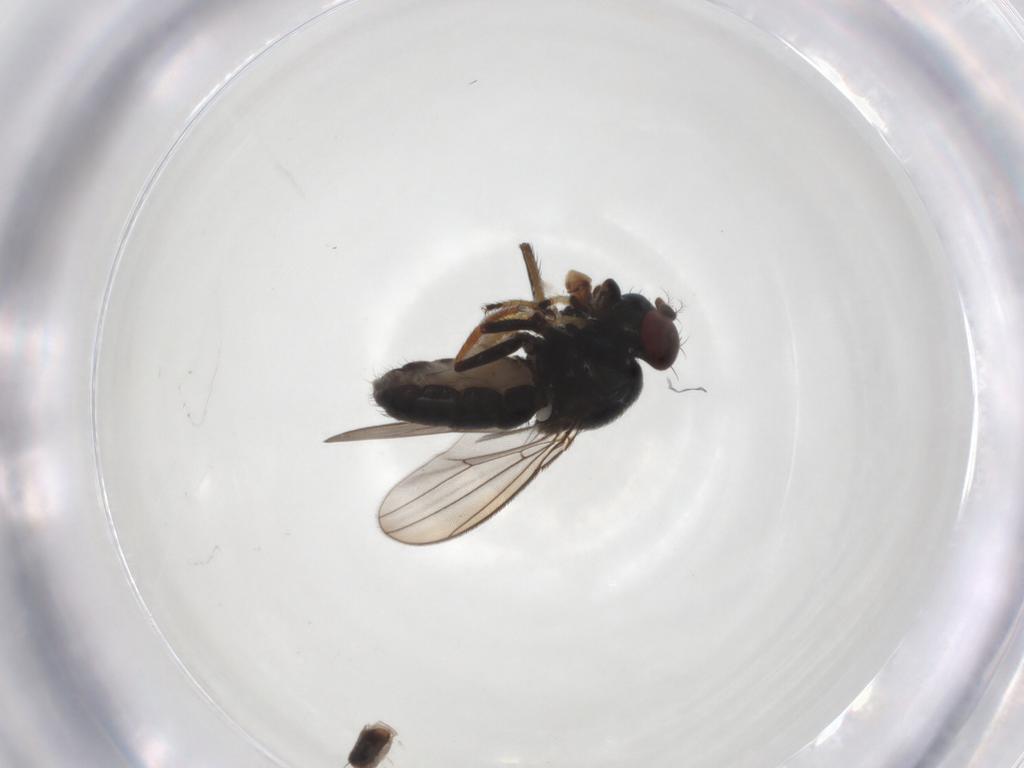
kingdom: Animalia
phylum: Arthropoda
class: Insecta
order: Diptera
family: Ephydridae
